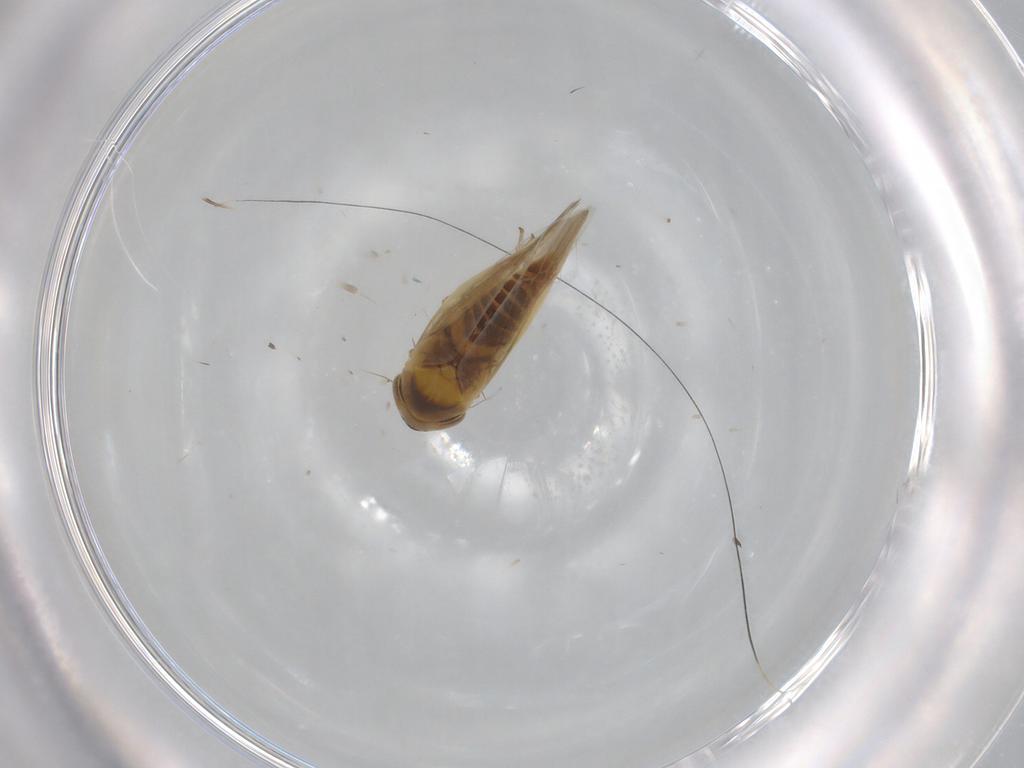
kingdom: Animalia
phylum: Arthropoda
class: Insecta
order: Hemiptera
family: Cicadellidae
